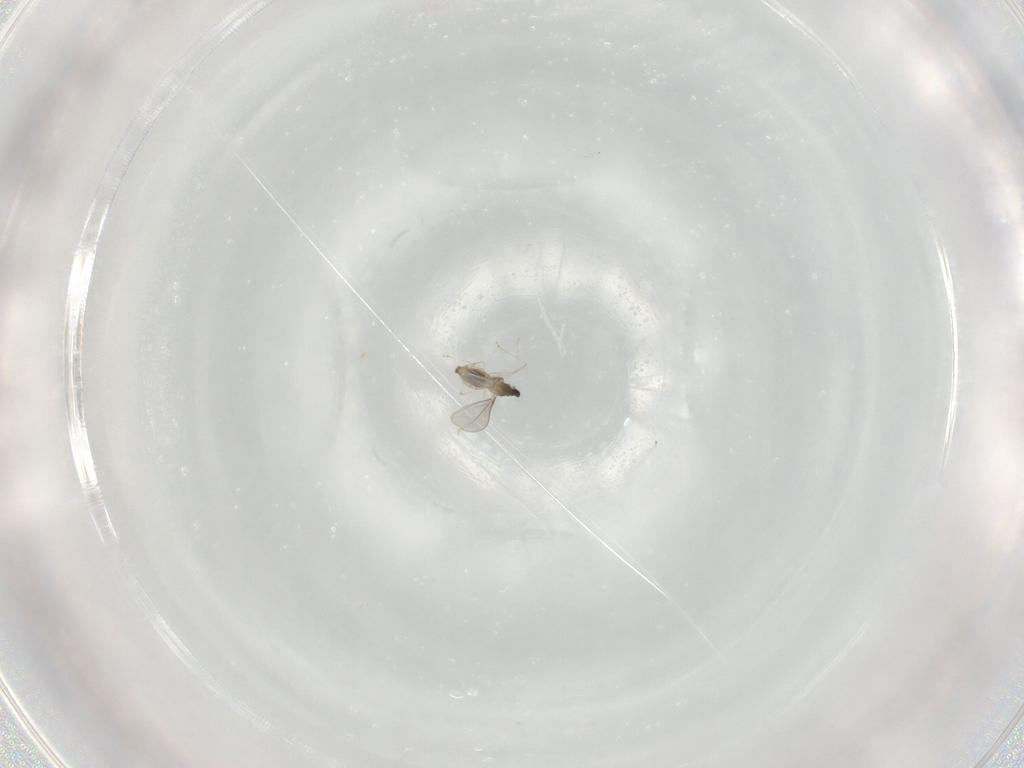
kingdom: Animalia
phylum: Arthropoda
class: Insecta
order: Diptera
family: Cecidomyiidae
